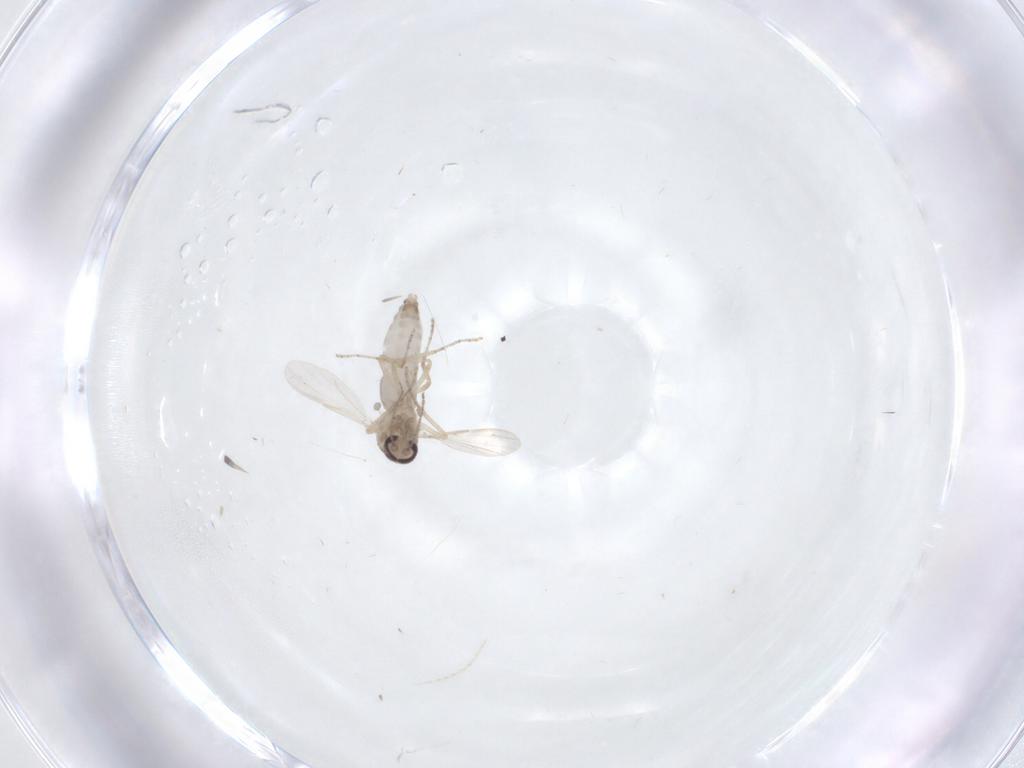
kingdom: Animalia
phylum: Arthropoda
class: Insecta
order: Diptera
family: Ceratopogonidae
